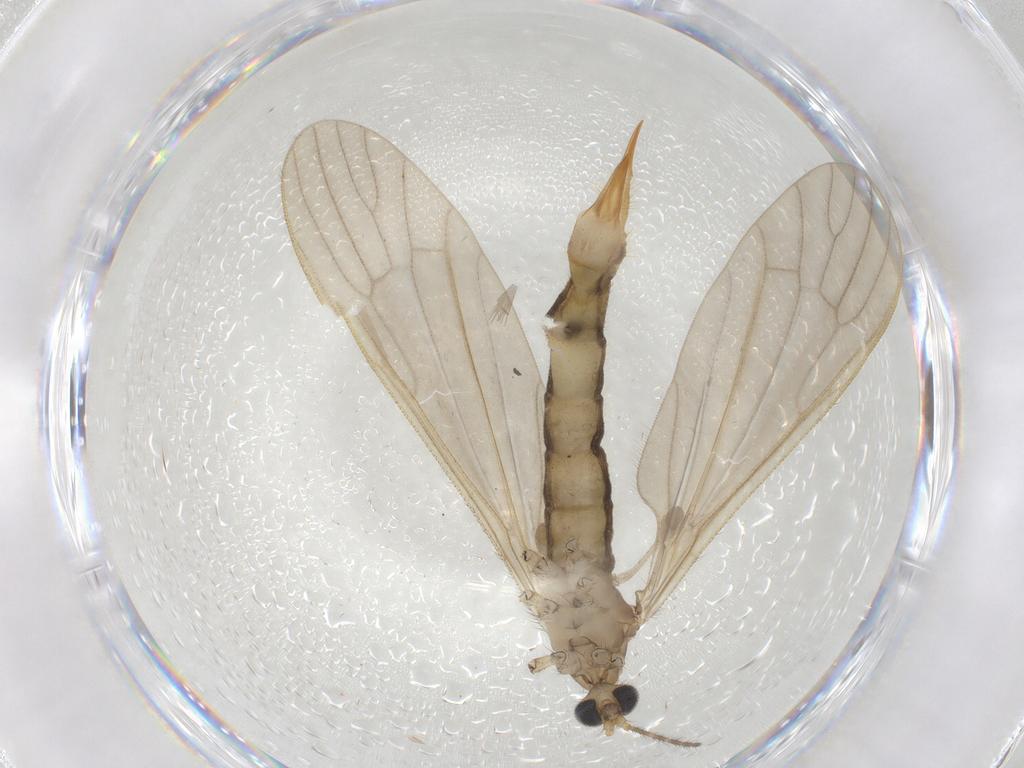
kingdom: Animalia
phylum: Arthropoda
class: Insecta
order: Diptera
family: Limoniidae
